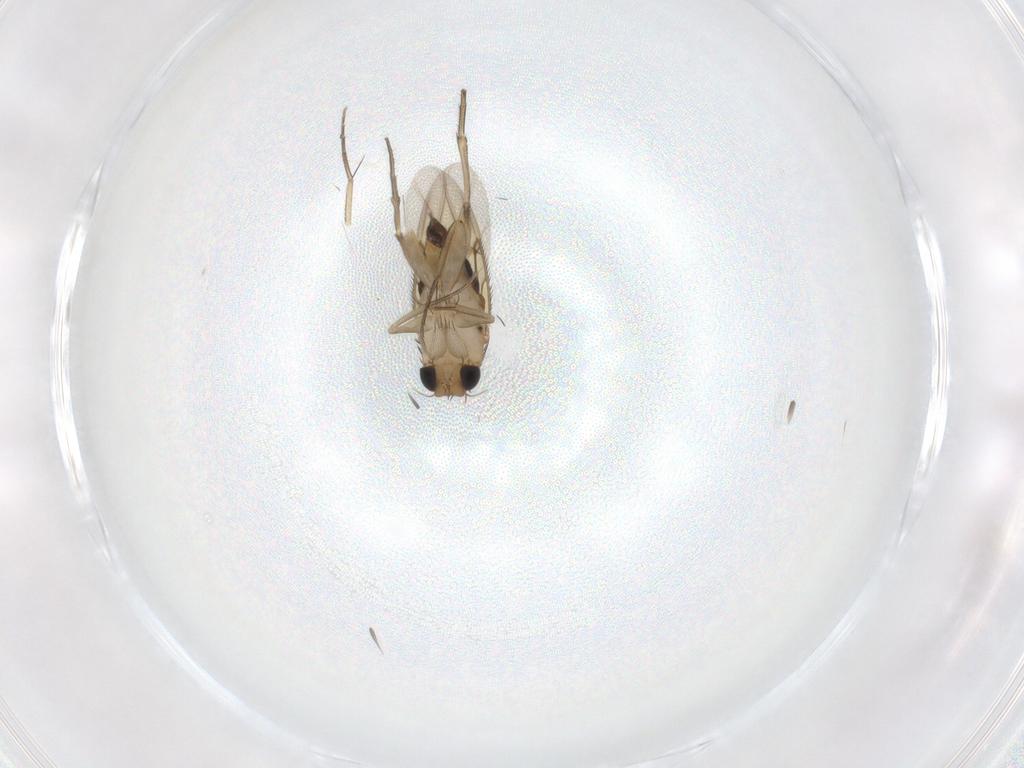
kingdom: Animalia
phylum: Arthropoda
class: Insecta
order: Diptera
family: Phoridae
